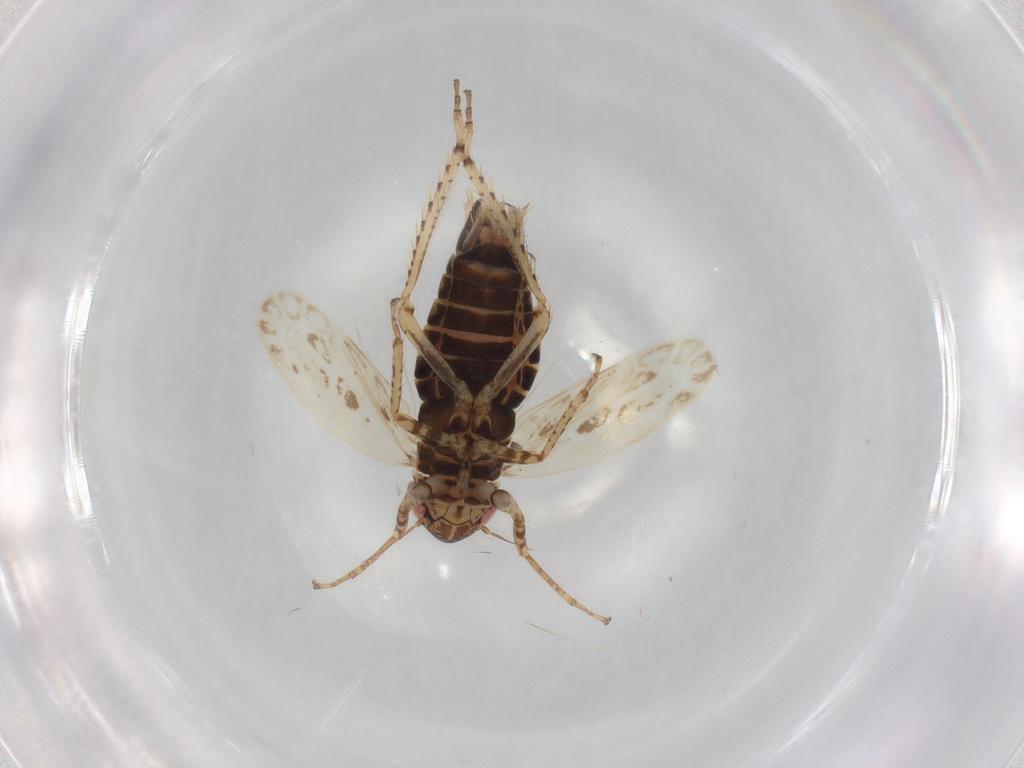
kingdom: Animalia
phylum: Arthropoda
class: Insecta
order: Hemiptera
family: Cicadellidae
